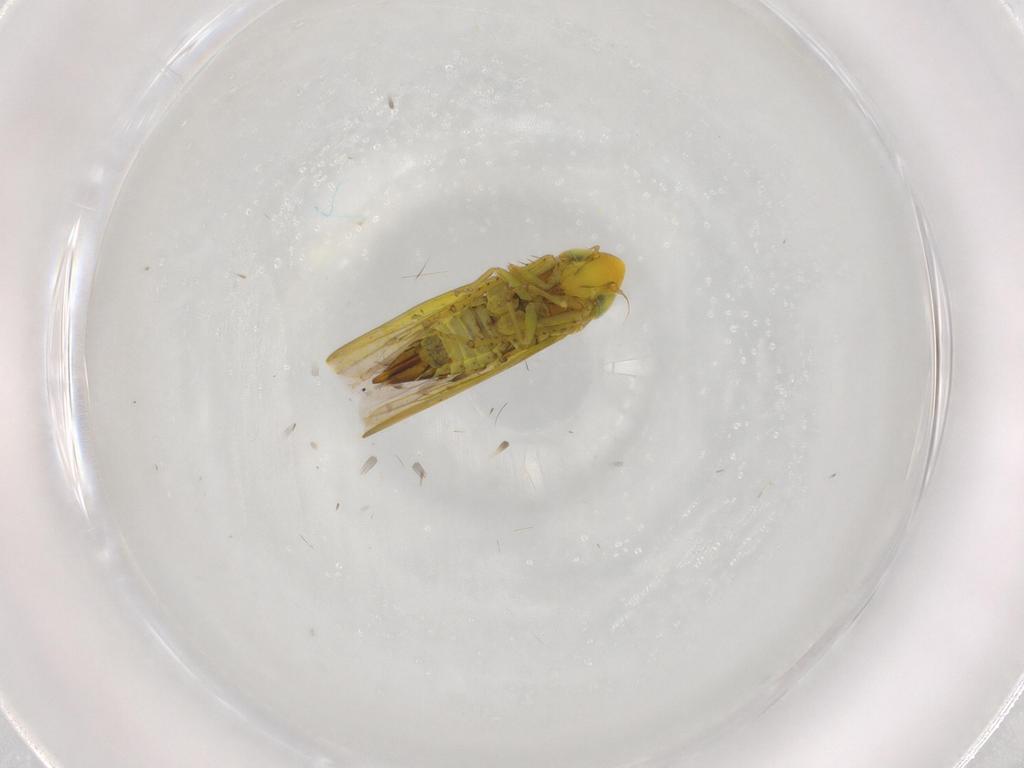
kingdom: Animalia
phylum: Arthropoda
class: Insecta
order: Hemiptera
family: Cicadellidae
